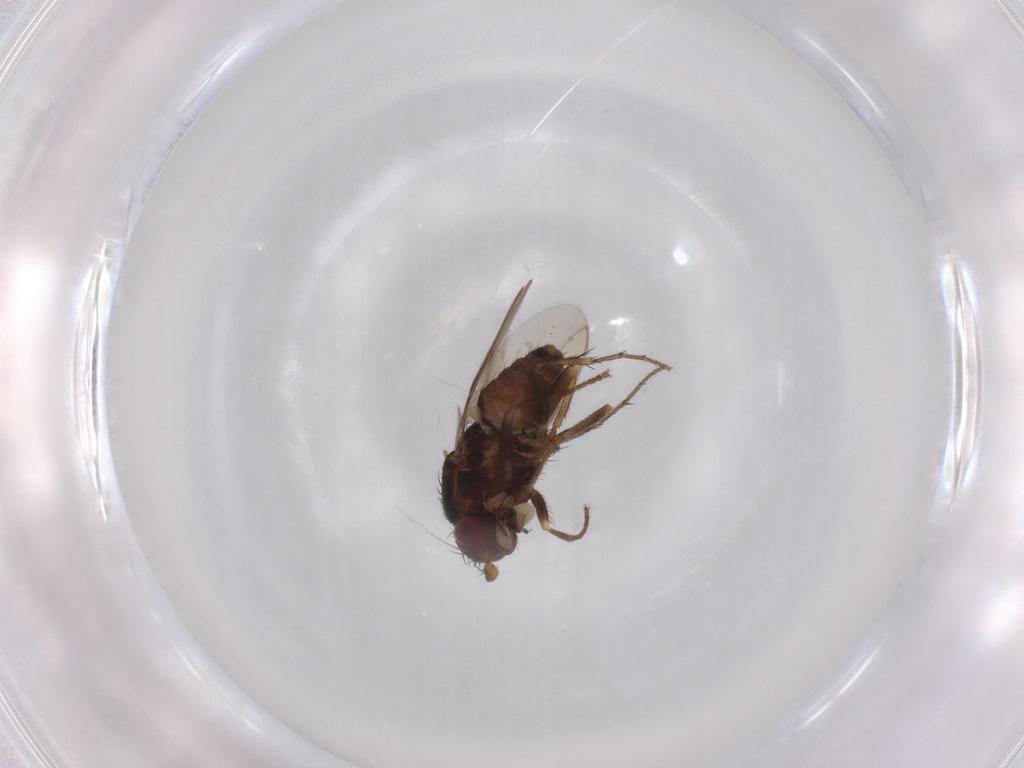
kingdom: Animalia
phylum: Arthropoda
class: Insecta
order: Diptera
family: Sphaeroceridae
